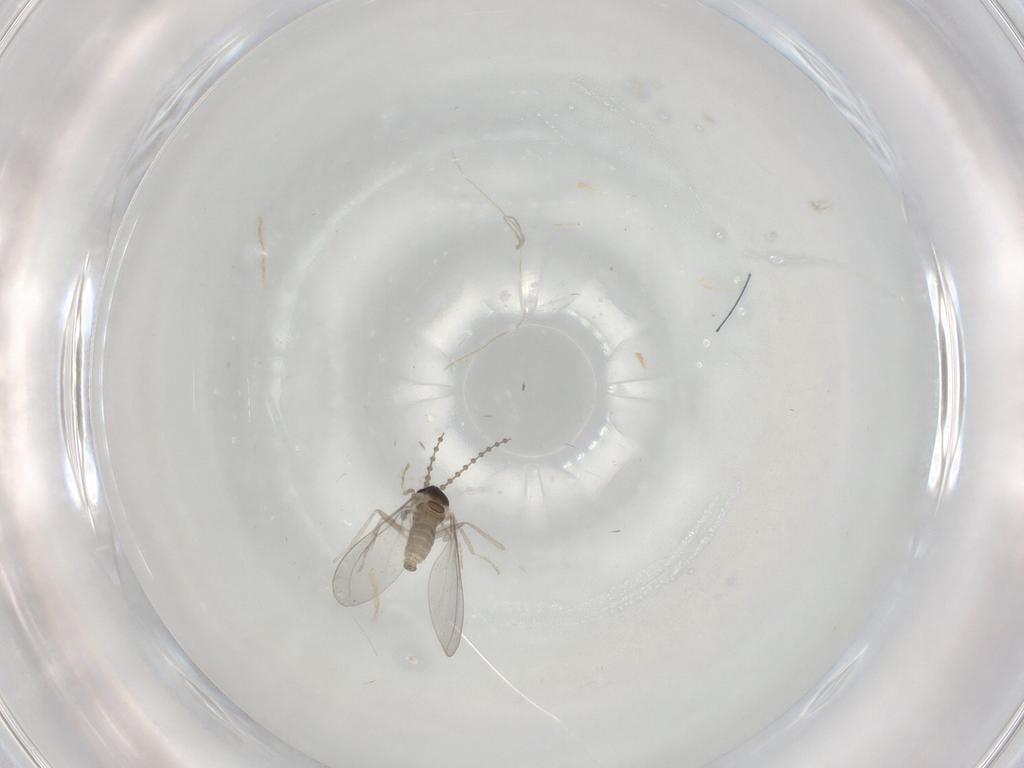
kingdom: Animalia
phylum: Arthropoda
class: Insecta
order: Diptera
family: Cecidomyiidae
